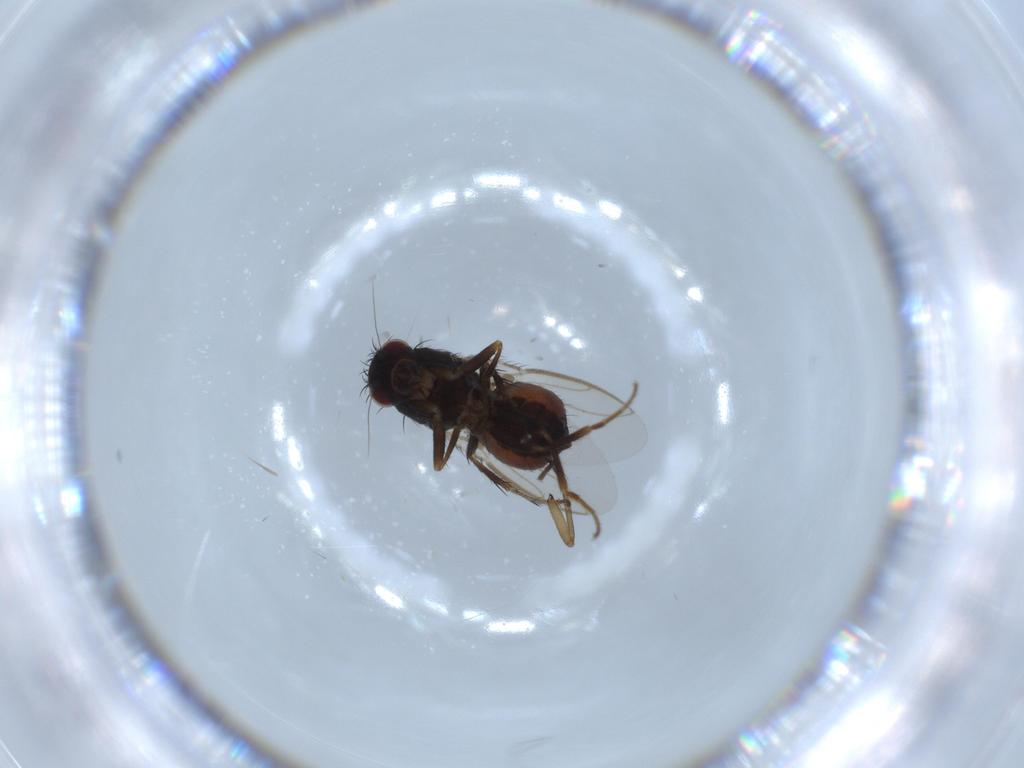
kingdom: Animalia
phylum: Arthropoda
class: Insecta
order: Diptera
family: Sphaeroceridae
